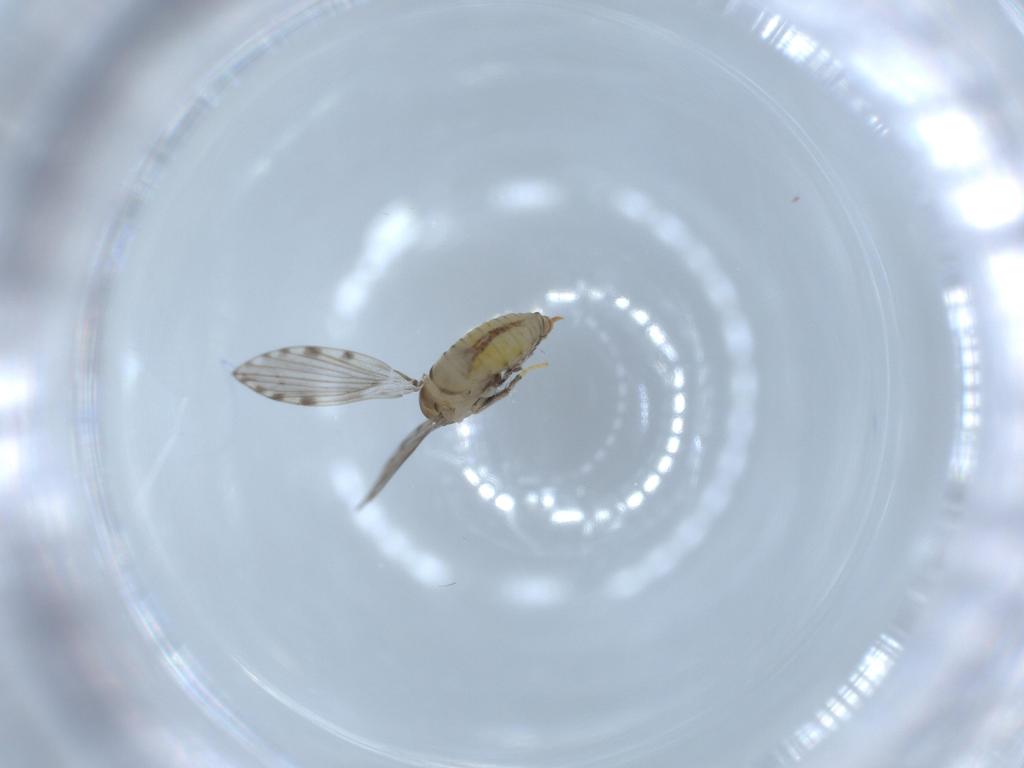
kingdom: Animalia
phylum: Arthropoda
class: Insecta
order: Diptera
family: Psychodidae
